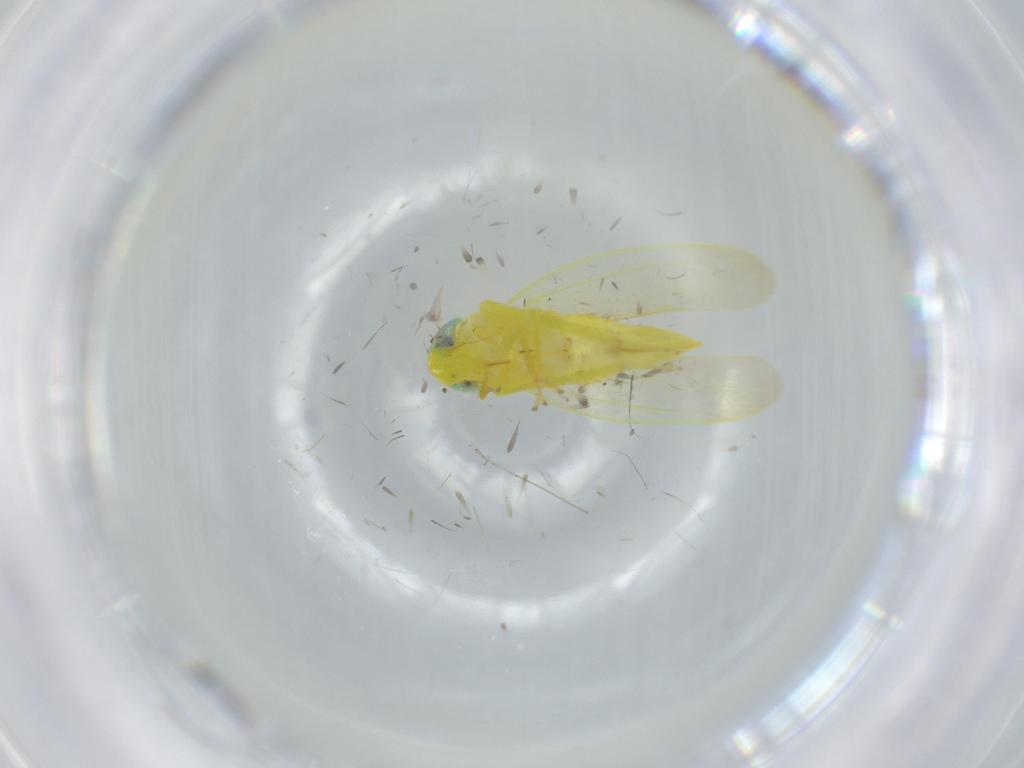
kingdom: Animalia
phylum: Arthropoda
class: Insecta
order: Hemiptera
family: Cicadellidae
